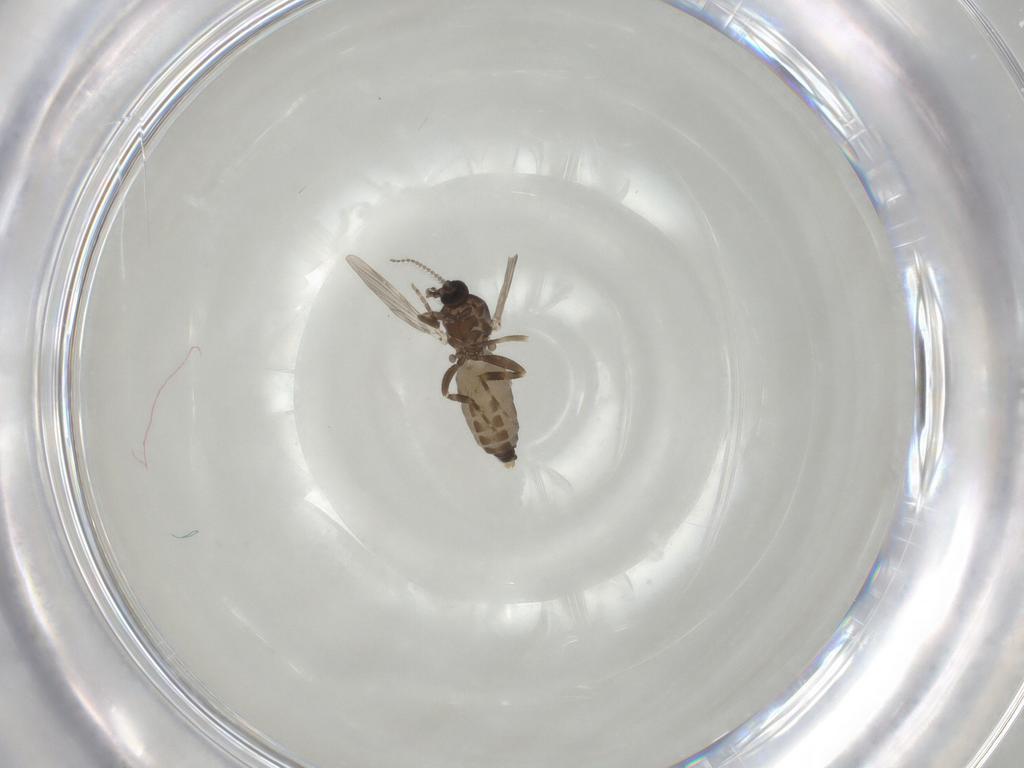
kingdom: Animalia
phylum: Arthropoda
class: Insecta
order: Diptera
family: Ceratopogonidae
